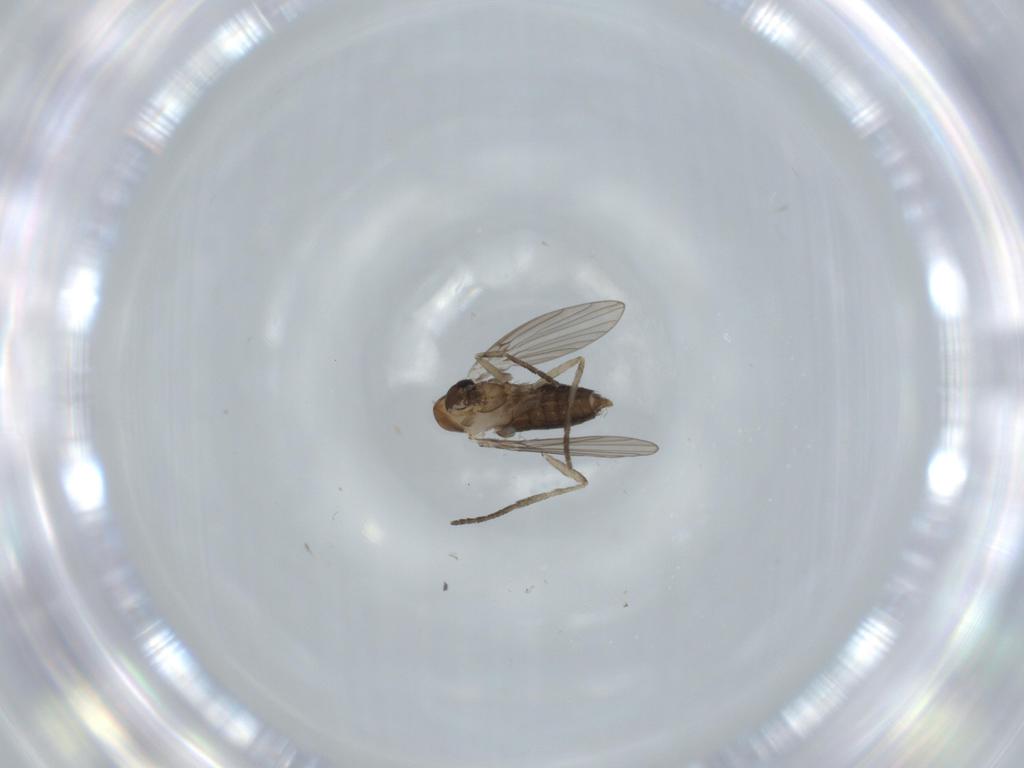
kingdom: Animalia
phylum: Arthropoda
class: Insecta
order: Diptera
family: Psychodidae
